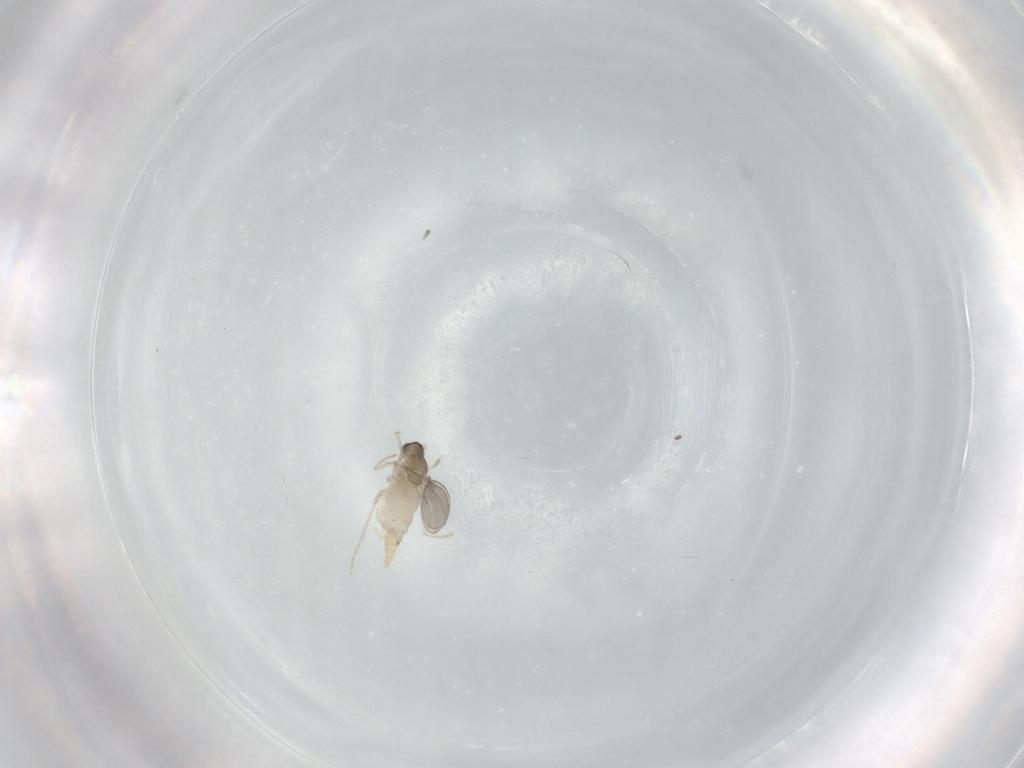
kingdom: Animalia
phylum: Arthropoda
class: Insecta
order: Diptera
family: Cecidomyiidae
